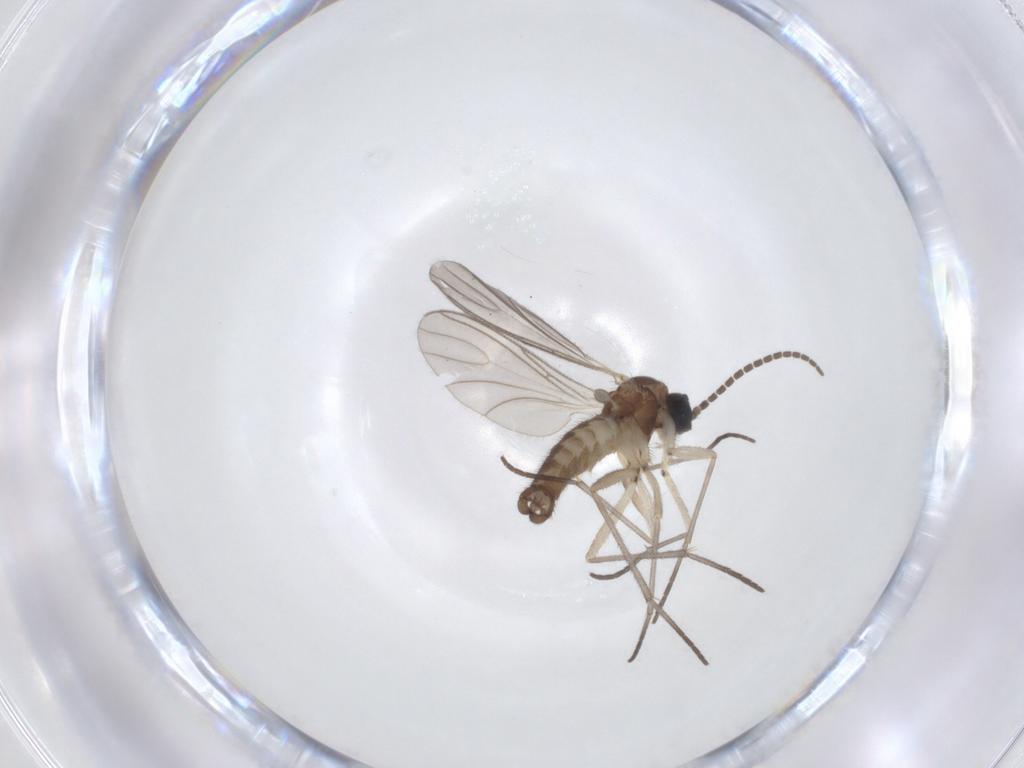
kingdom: Animalia
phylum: Arthropoda
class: Insecta
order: Diptera
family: Sciaridae
